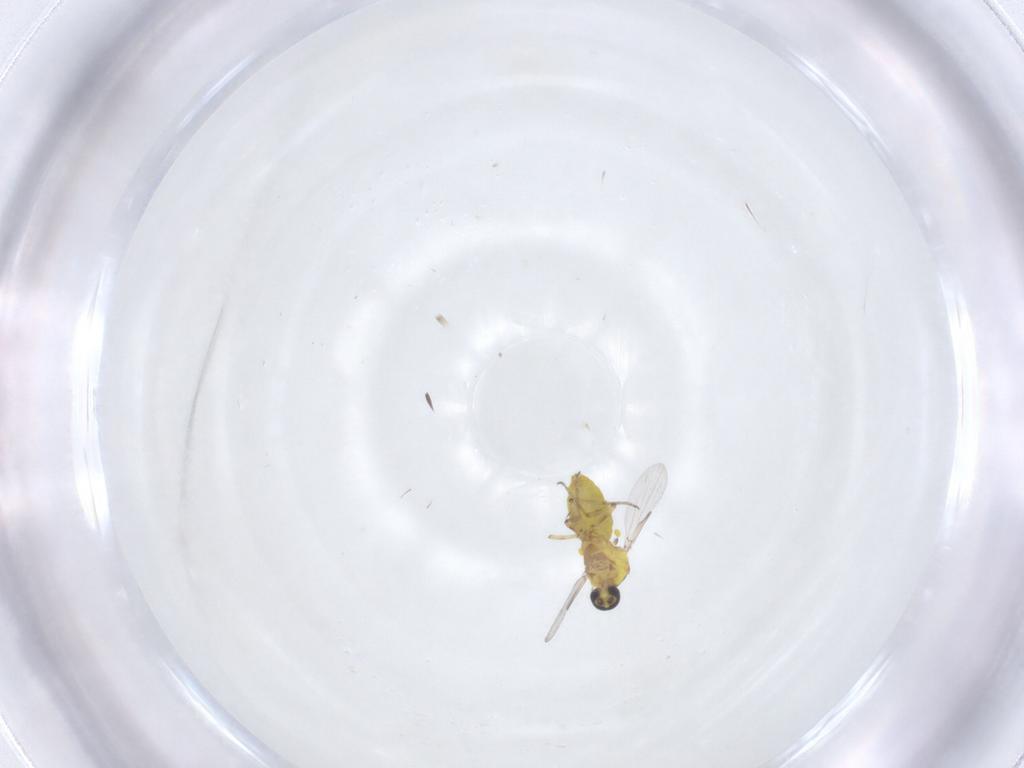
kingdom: Animalia
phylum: Arthropoda
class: Insecta
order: Diptera
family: Ceratopogonidae
